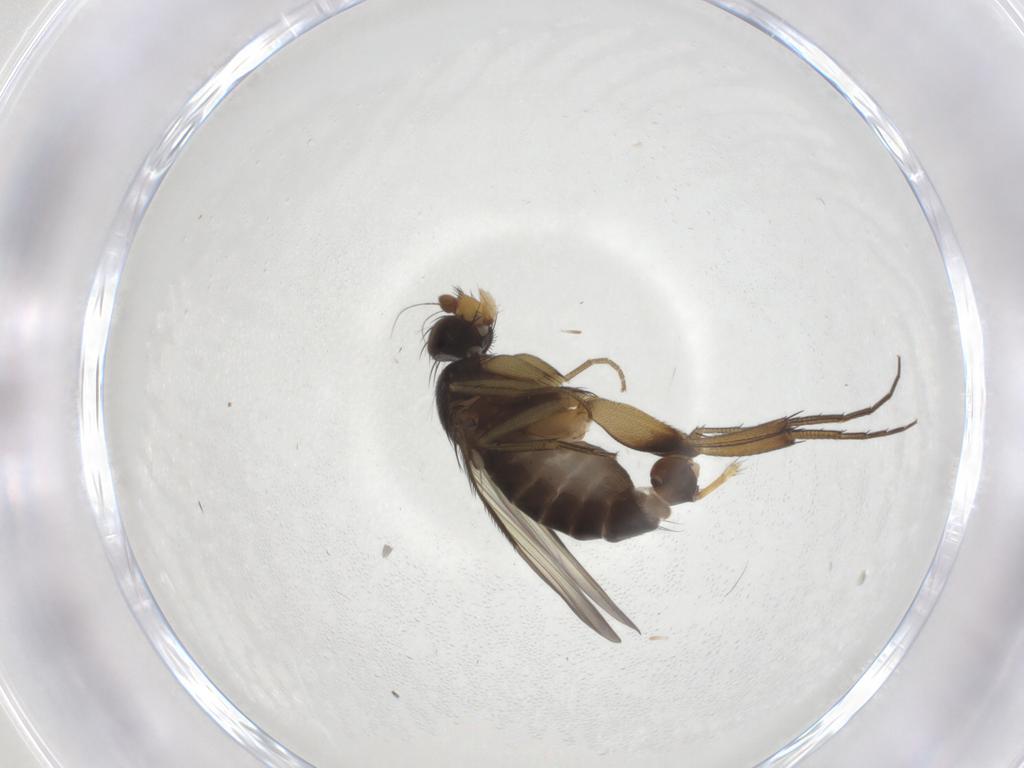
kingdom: Animalia
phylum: Arthropoda
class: Insecta
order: Diptera
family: Phoridae
